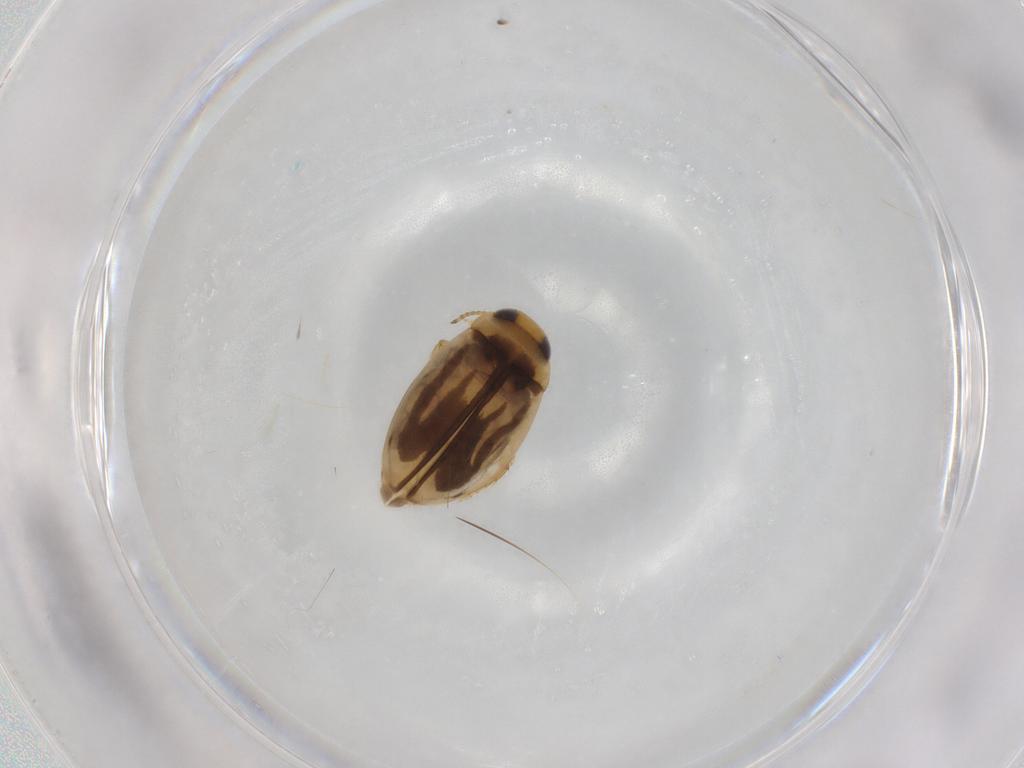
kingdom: Animalia
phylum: Arthropoda
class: Insecta
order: Coleoptera
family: Dytiscidae
